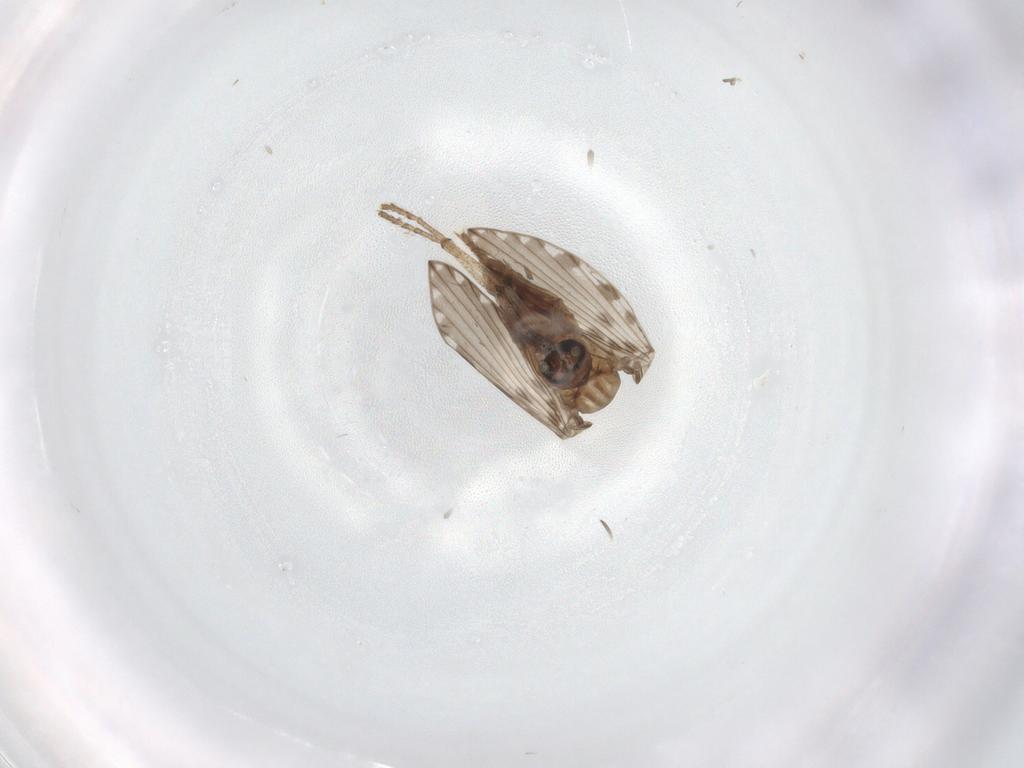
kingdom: Animalia
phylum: Arthropoda
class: Insecta
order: Diptera
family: Psychodidae
